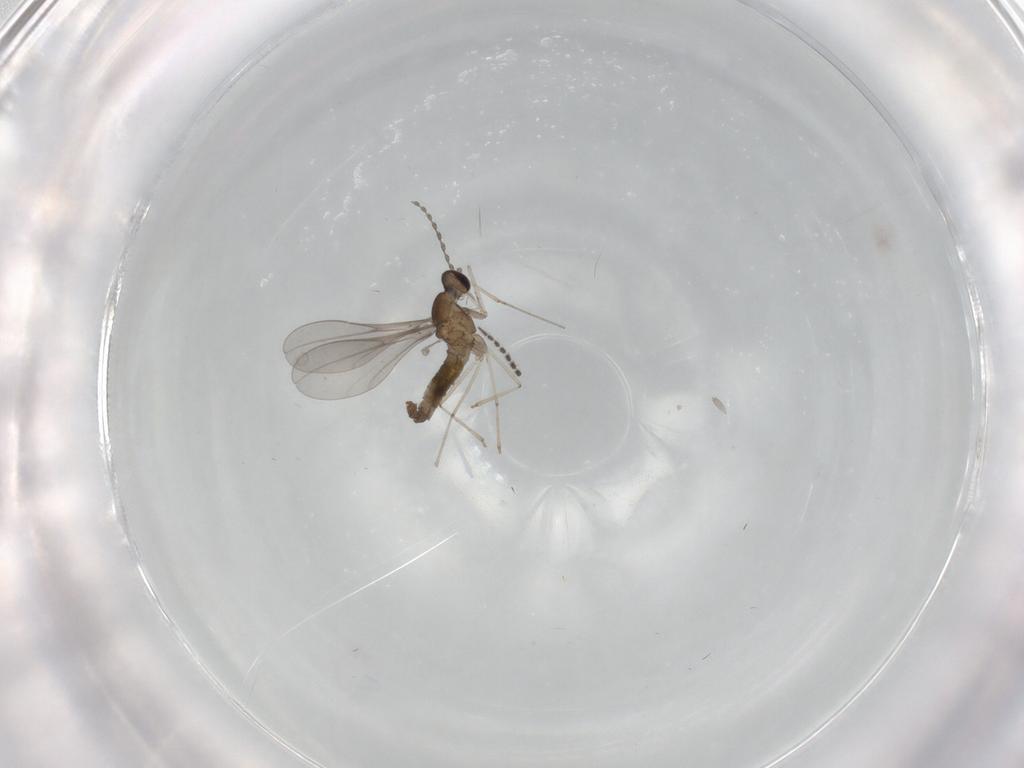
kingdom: Animalia
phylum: Arthropoda
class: Insecta
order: Diptera
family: Cecidomyiidae
